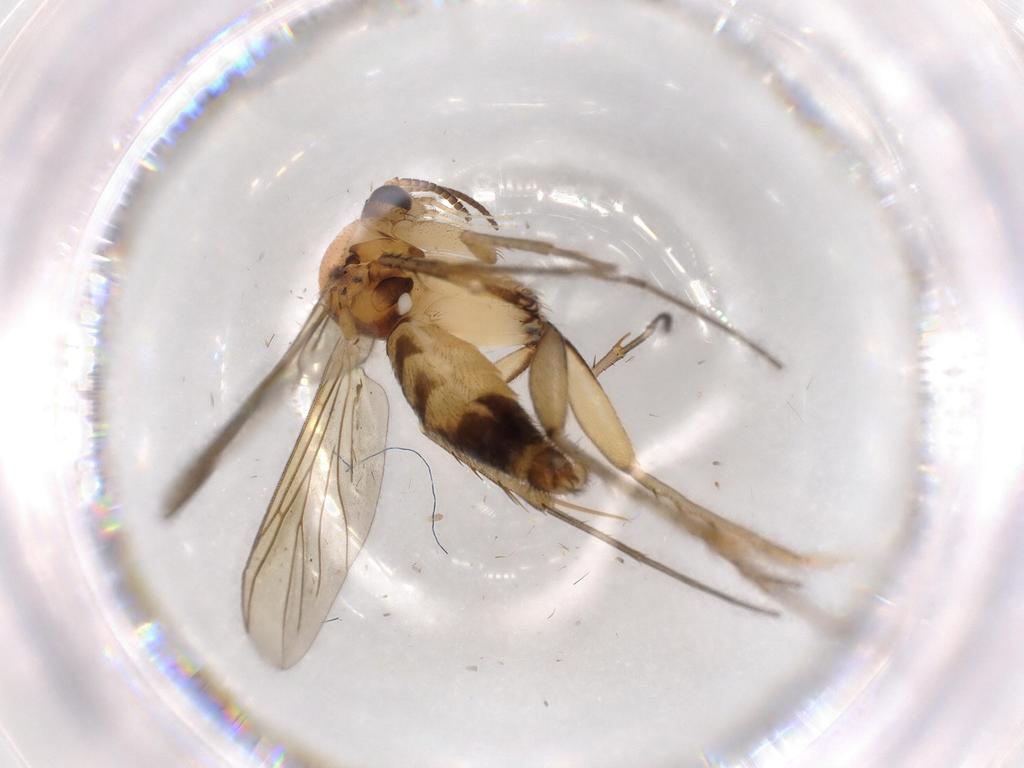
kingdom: Animalia
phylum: Arthropoda
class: Insecta
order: Diptera
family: Mycetophilidae
